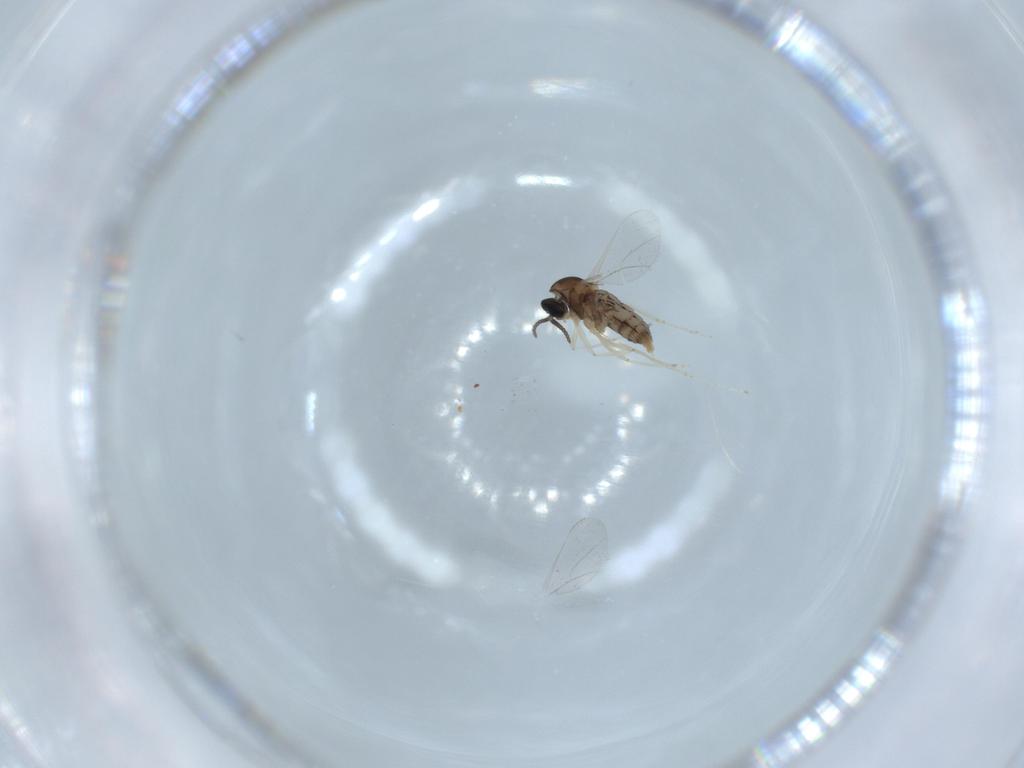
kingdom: Animalia
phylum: Arthropoda
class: Insecta
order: Diptera
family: Cecidomyiidae
